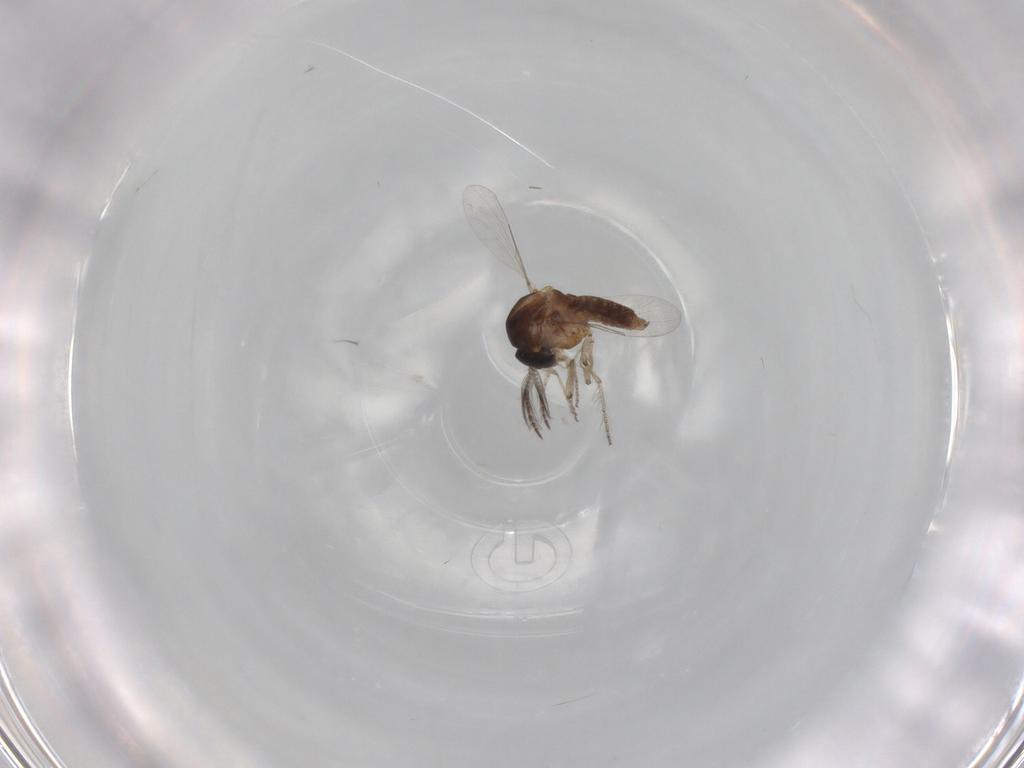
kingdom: Animalia
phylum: Arthropoda
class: Insecta
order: Diptera
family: Ceratopogonidae
